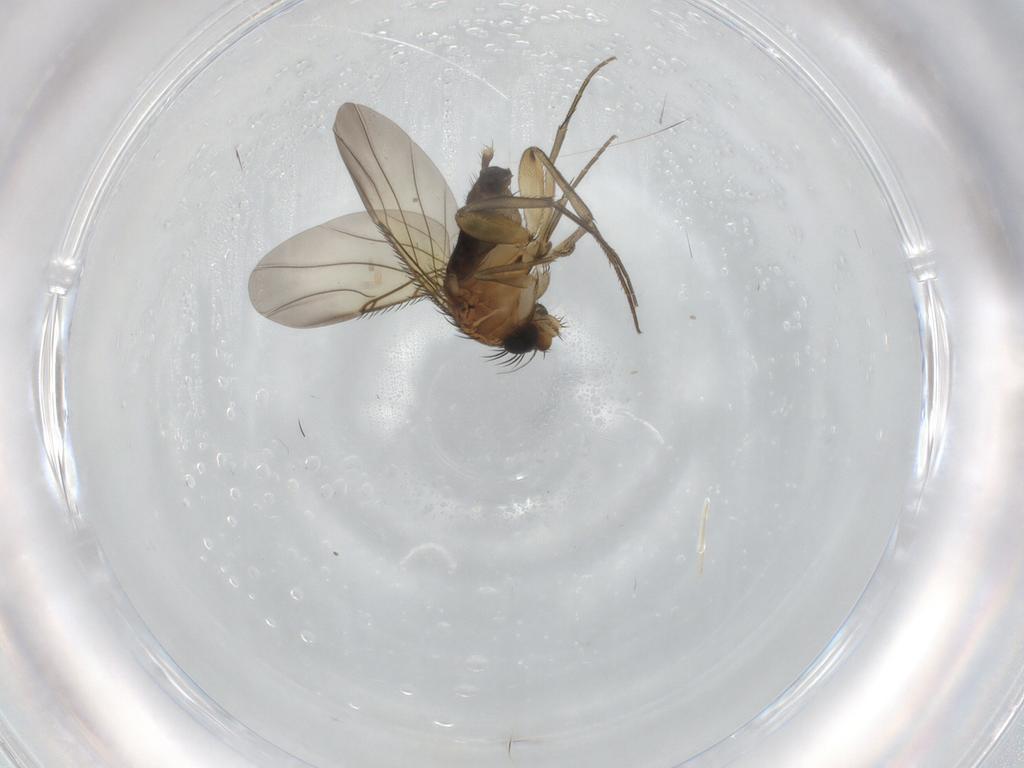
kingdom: Animalia
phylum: Arthropoda
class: Insecta
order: Diptera
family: Phoridae
